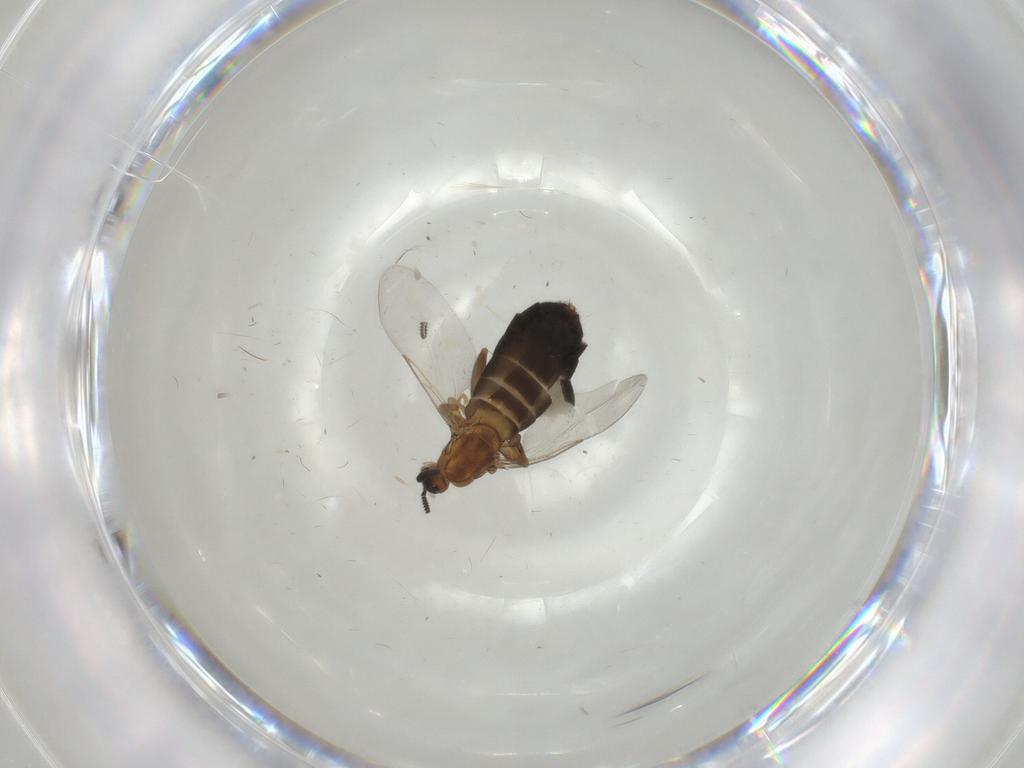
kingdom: Animalia
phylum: Arthropoda
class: Insecta
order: Diptera
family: Scatopsidae
